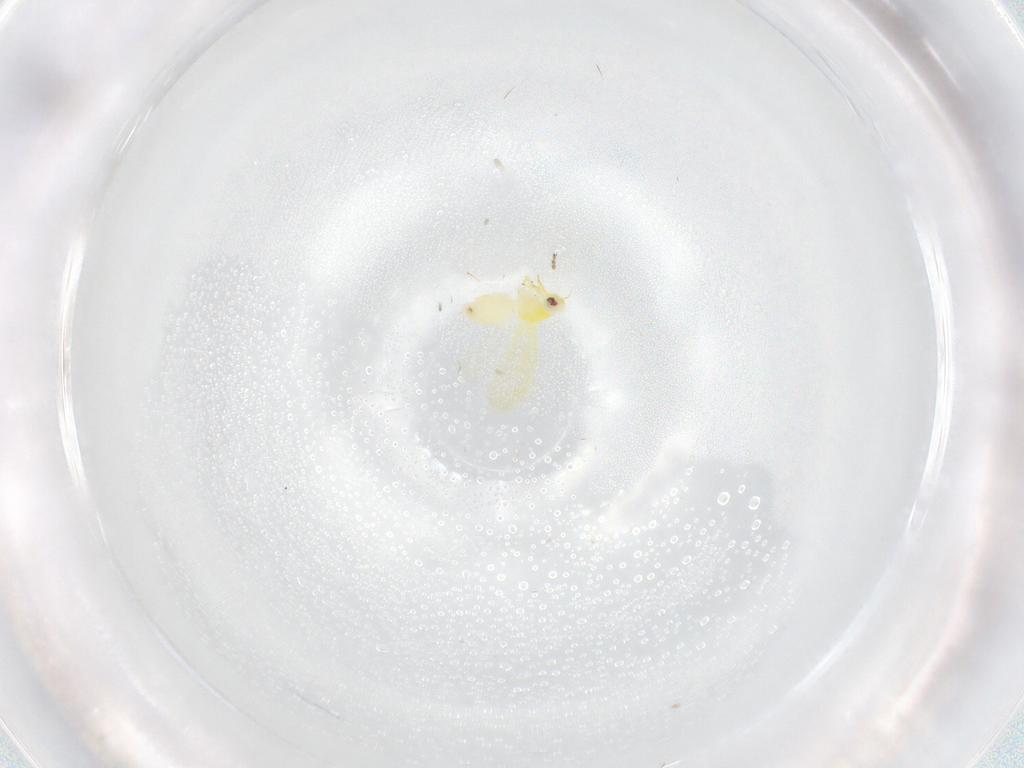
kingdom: Animalia
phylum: Arthropoda
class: Insecta
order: Hemiptera
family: Aleyrodidae
